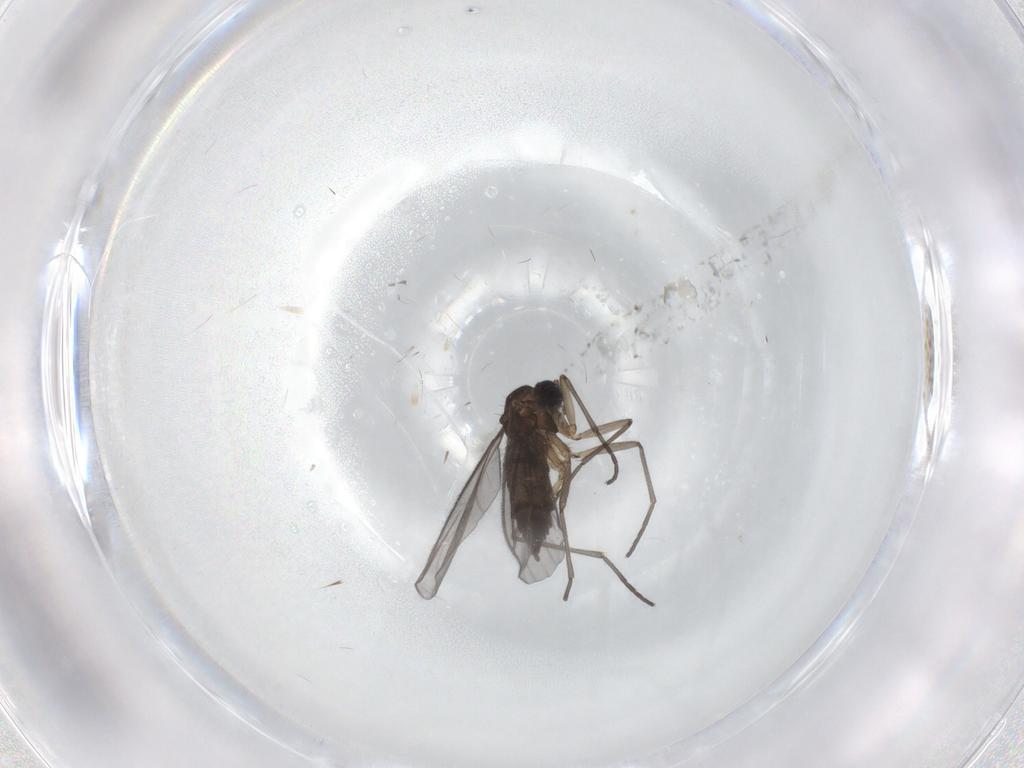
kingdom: Animalia
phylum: Arthropoda
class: Insecta
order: Diptera
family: Sciaridae
